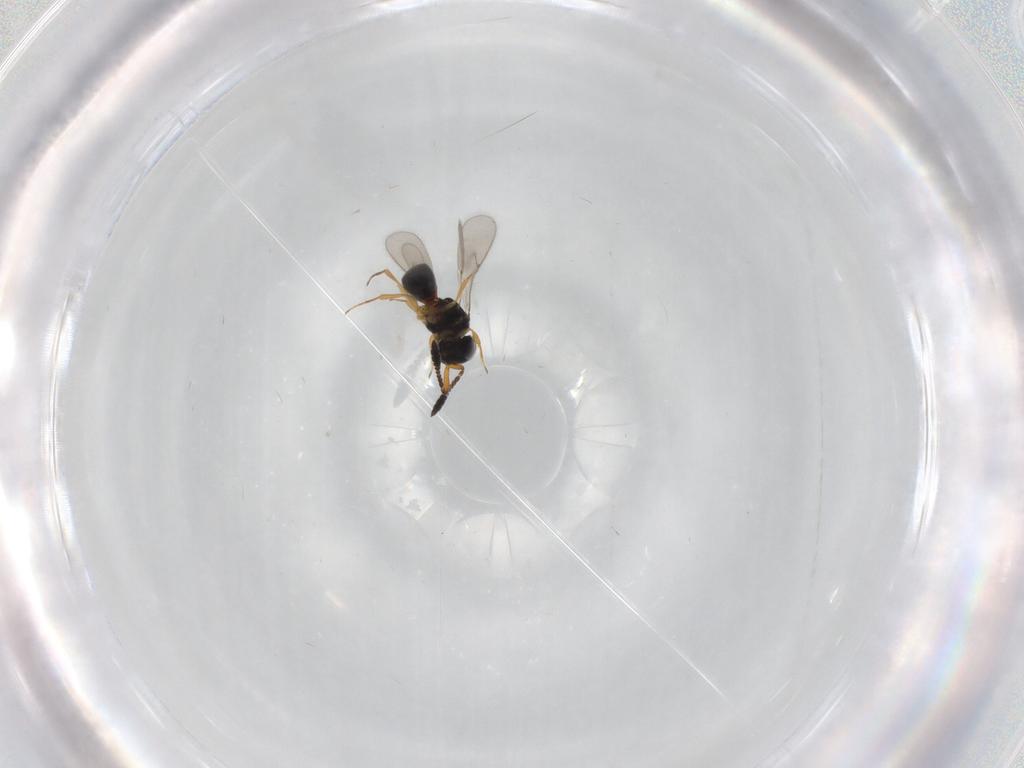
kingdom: Animalia
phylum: Arthropoda
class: Insecta
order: Hymenoptera
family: Scelionidae
